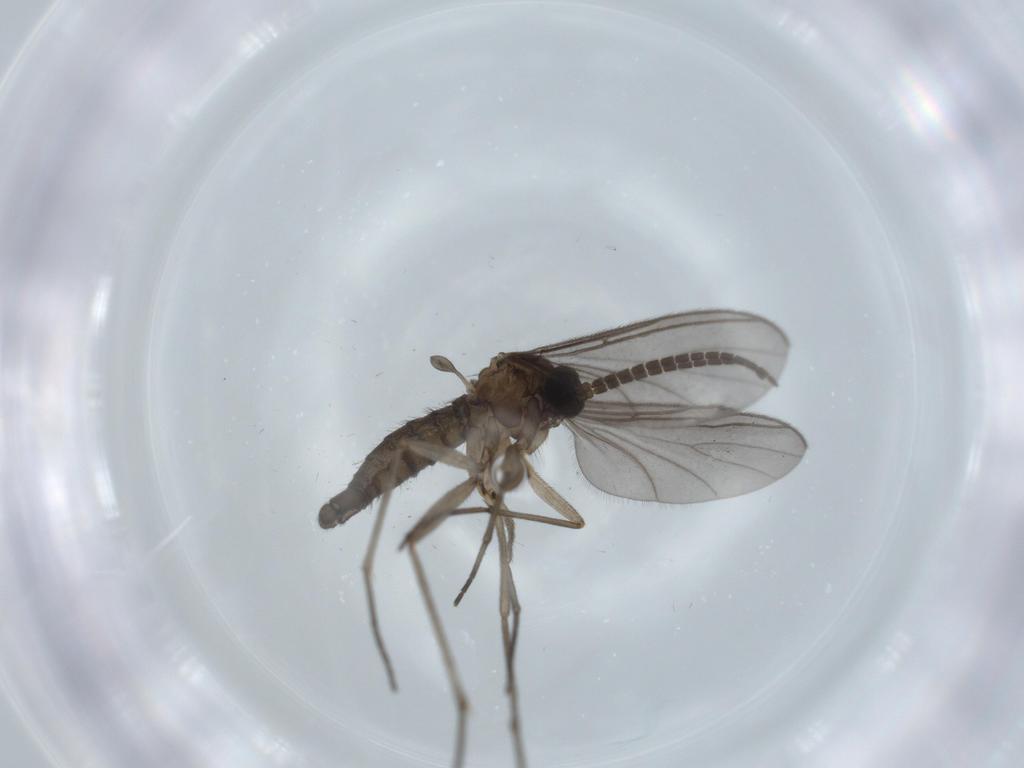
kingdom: Animalia
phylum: Arthropoda
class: Insecta
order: Diptera
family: Sciaridae
